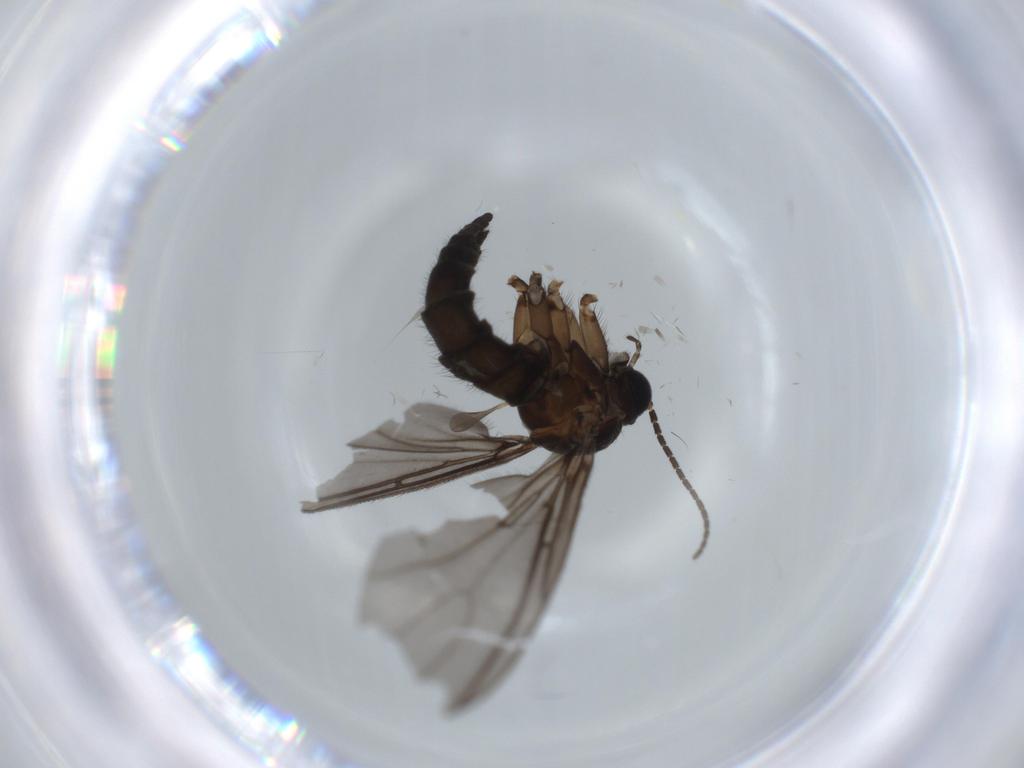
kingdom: Animalia
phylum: Arthropoda
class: Insecta
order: Diptera
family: Sciaridae
